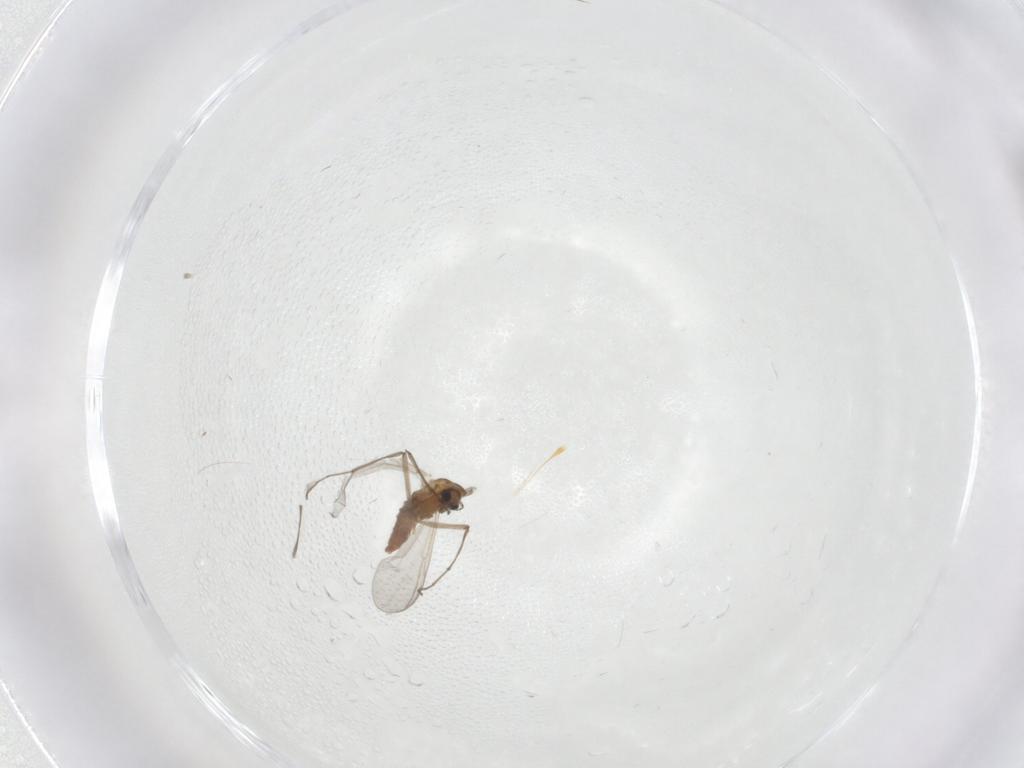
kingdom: Animalia
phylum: Arthropoda
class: Insecta
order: Diptera
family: Chironomidae
